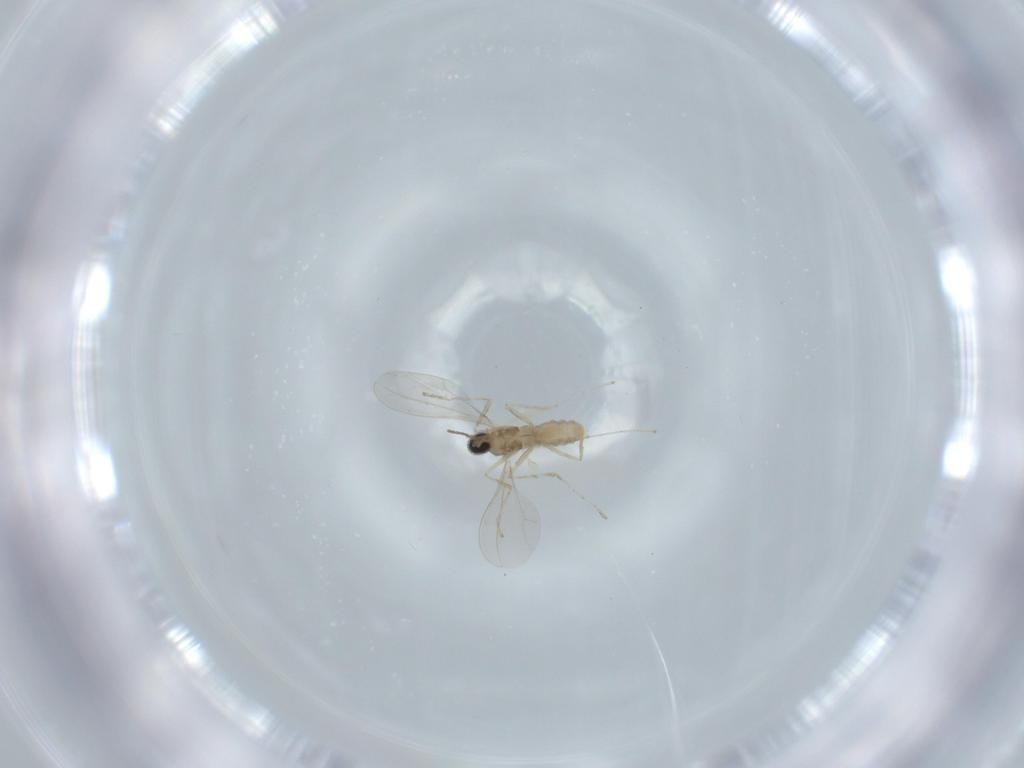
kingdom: Animalia
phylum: Arthropoda
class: Insecta
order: Diptera
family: Cecidomyiidae
